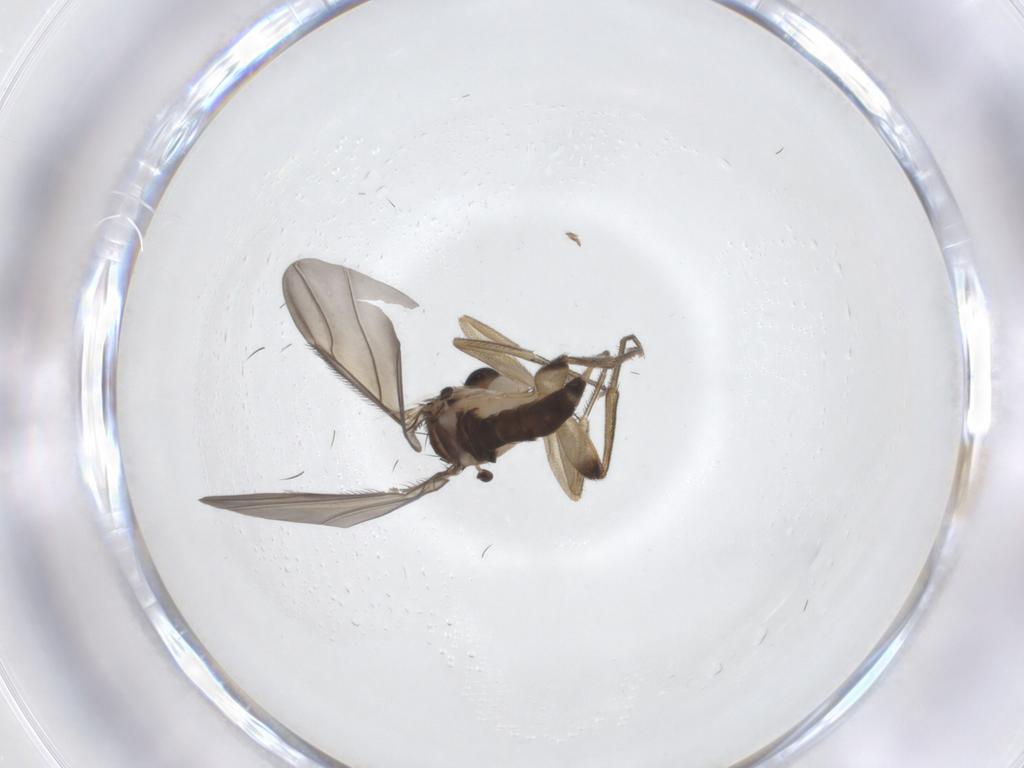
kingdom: Animalia
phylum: Arthropoda
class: Insecta
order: Diptera
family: Phoridae
